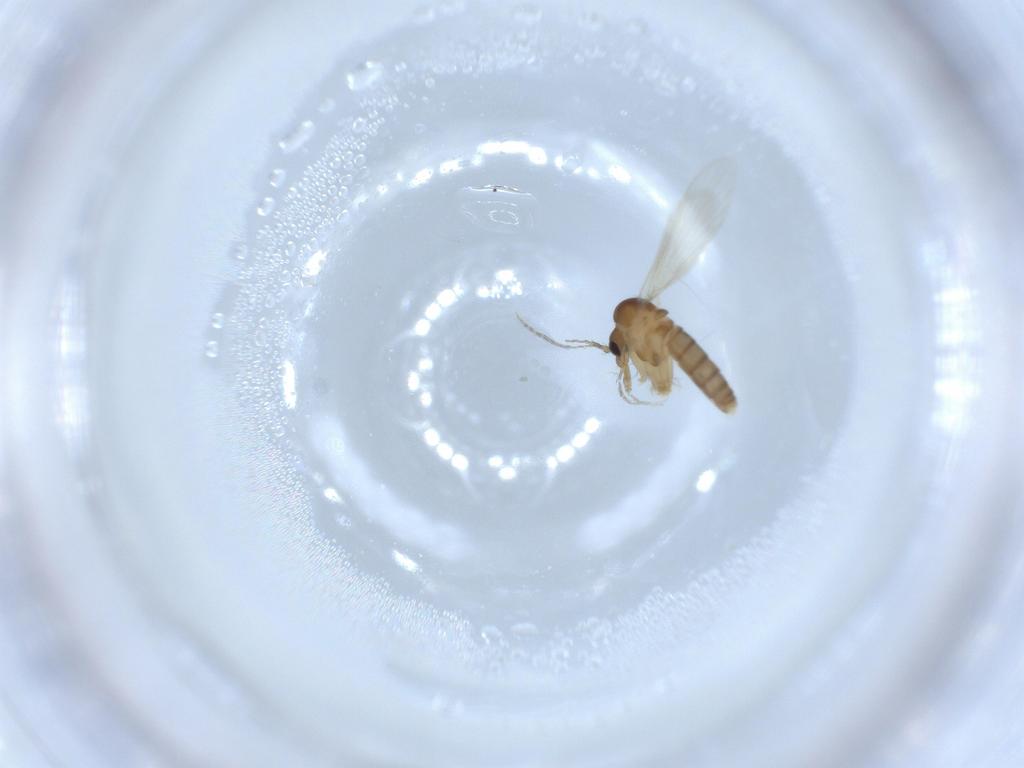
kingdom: Animalia
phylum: Arthropoda
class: Insecta
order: Diptera
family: Psychodidae
